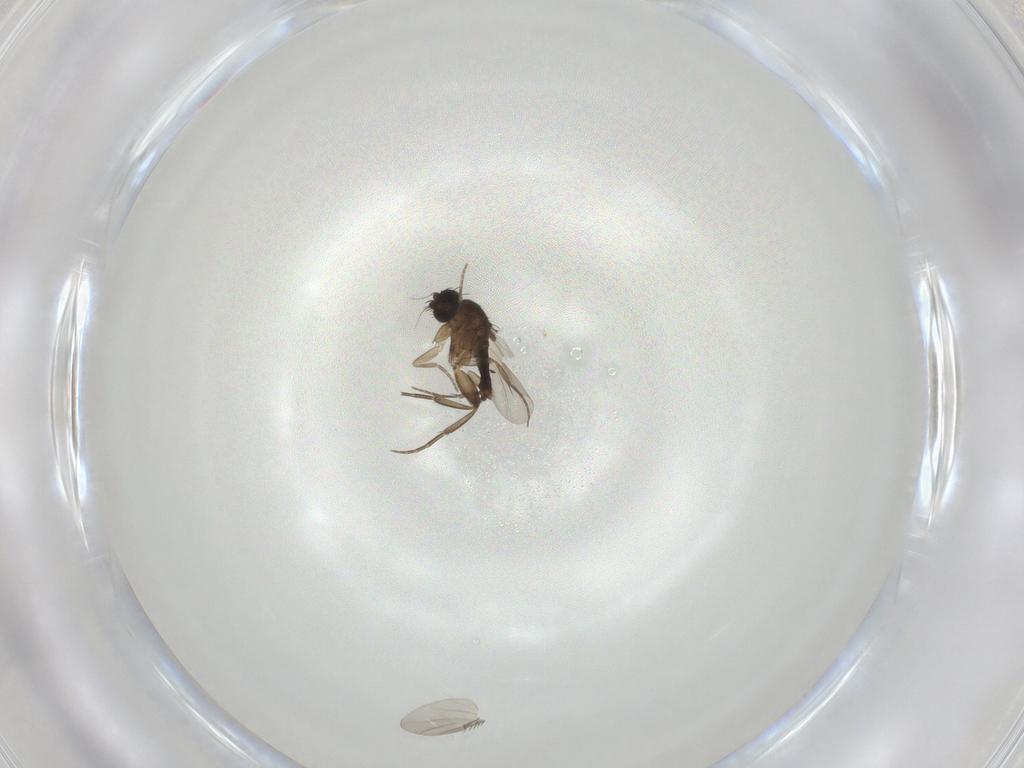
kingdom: Animalia
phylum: Arthropoda
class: Insecta
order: Diptera
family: Phoridae
